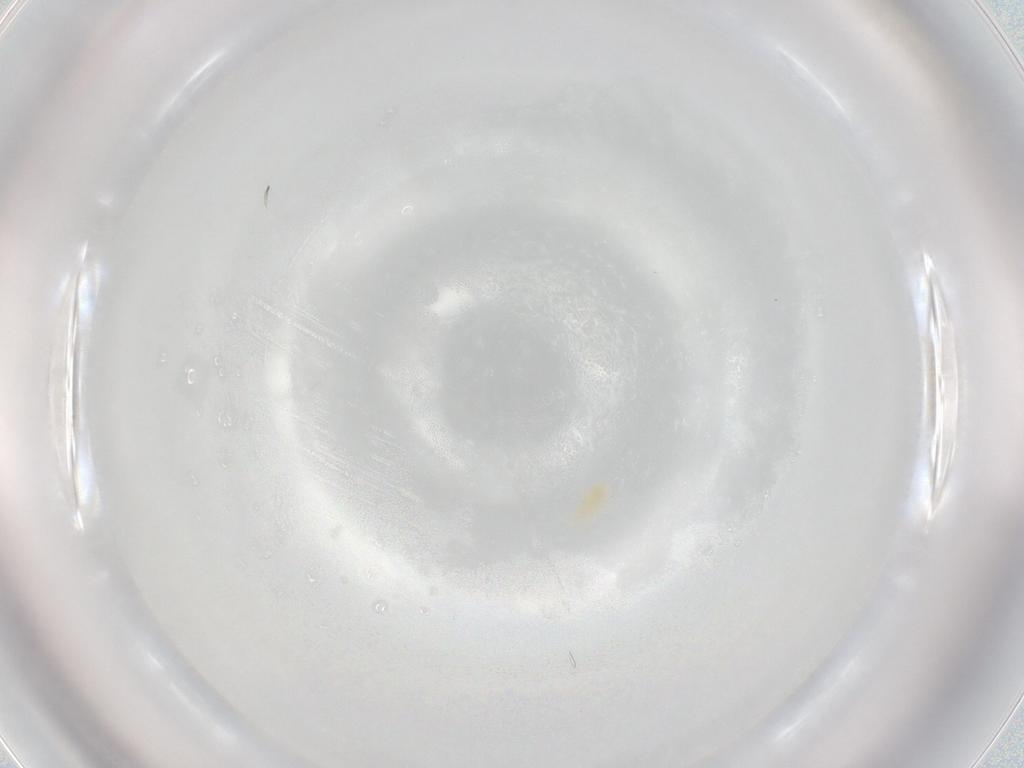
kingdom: Animalia
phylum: Arthropoda
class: Arachnida
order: Trombidiformes
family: Eupodidae
